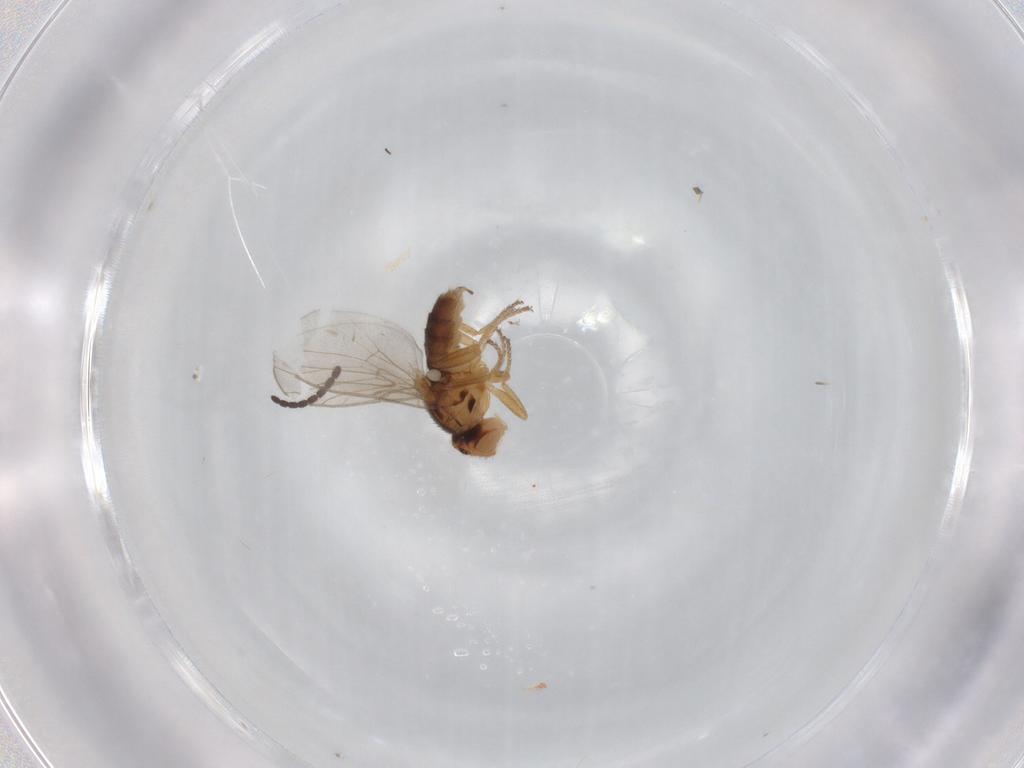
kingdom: Animalia
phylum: Arthropoda
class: Insecta
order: Diptera
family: Chloropidae
